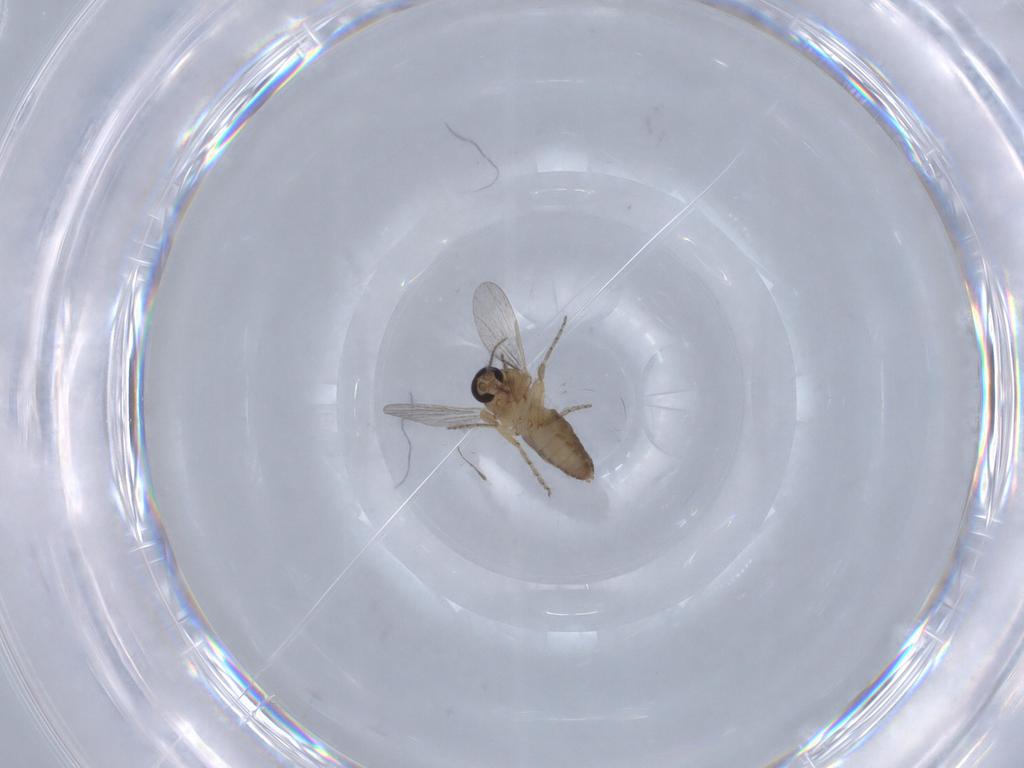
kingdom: Animalia
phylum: Arthropoda
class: Insecta
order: Diptera
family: Ceratopogonidae
